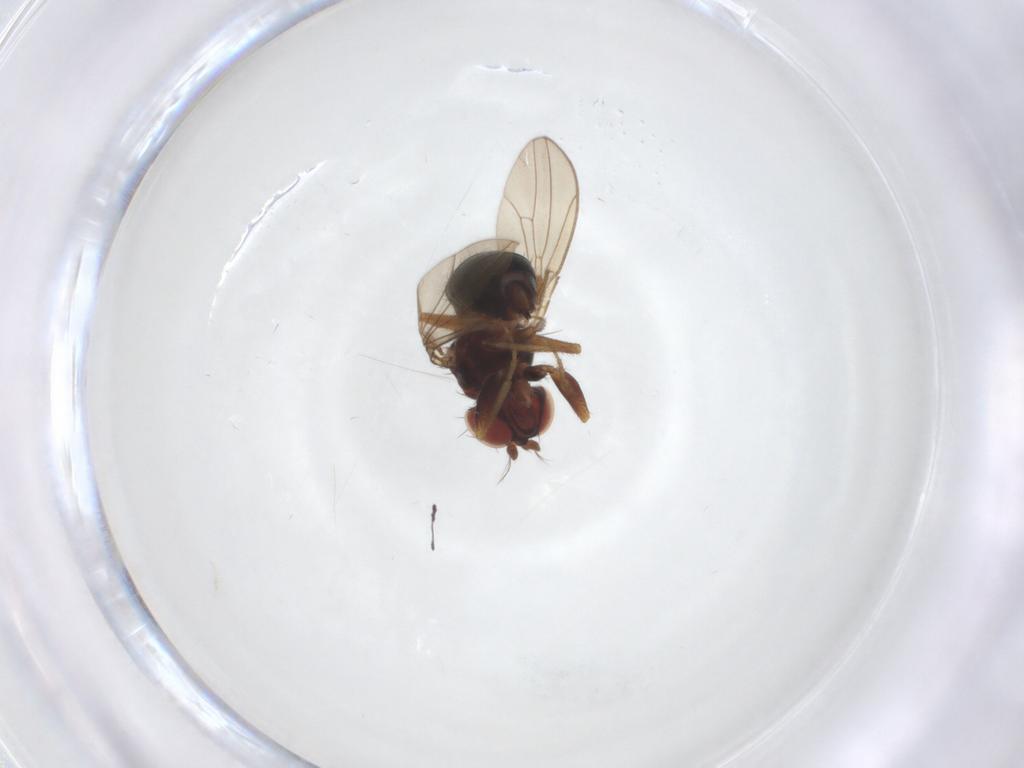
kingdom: Animalia
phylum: Arthropoda
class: Insecta
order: Diptera
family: Drosophilidae
